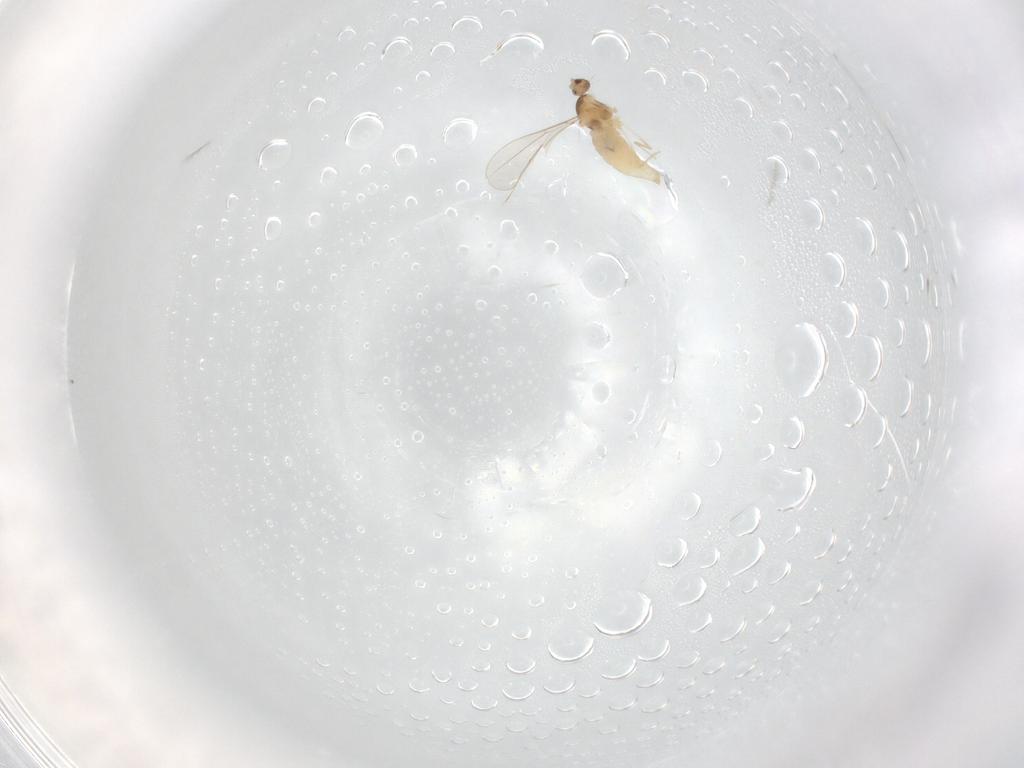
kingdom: Animalia
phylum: Arthropoda
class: Insecta
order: Diptera
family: Cecidomyiidae
